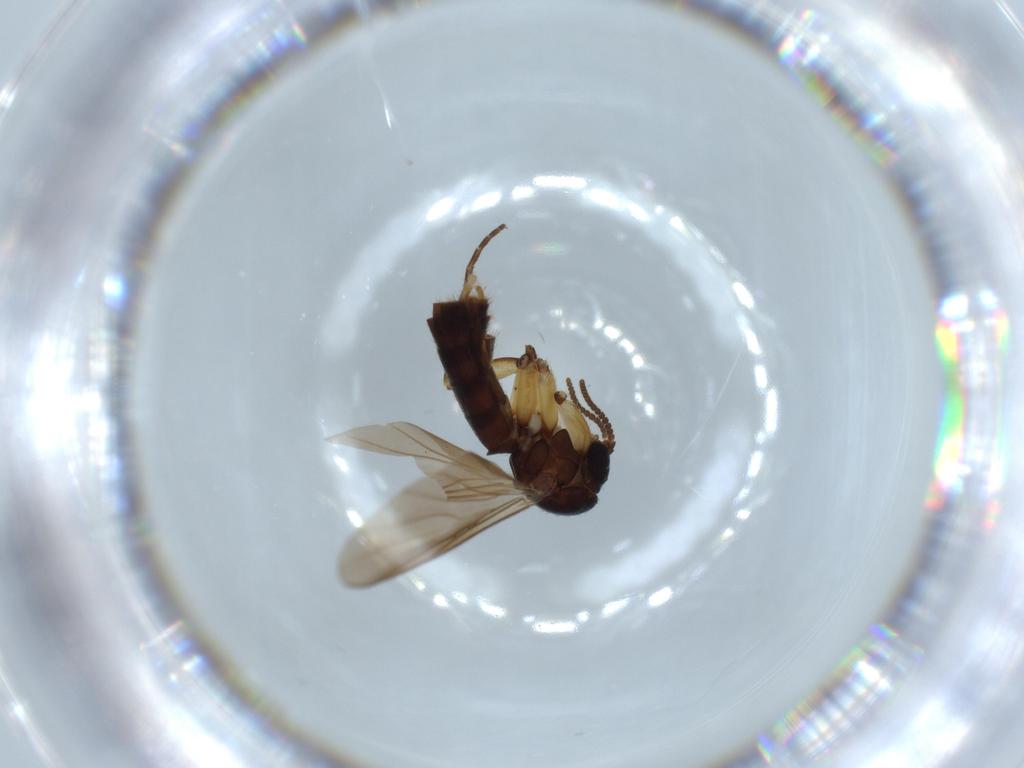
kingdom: Animalia
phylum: Arthropoda
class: Insecta
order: Diptera
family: Mycetophilidae
